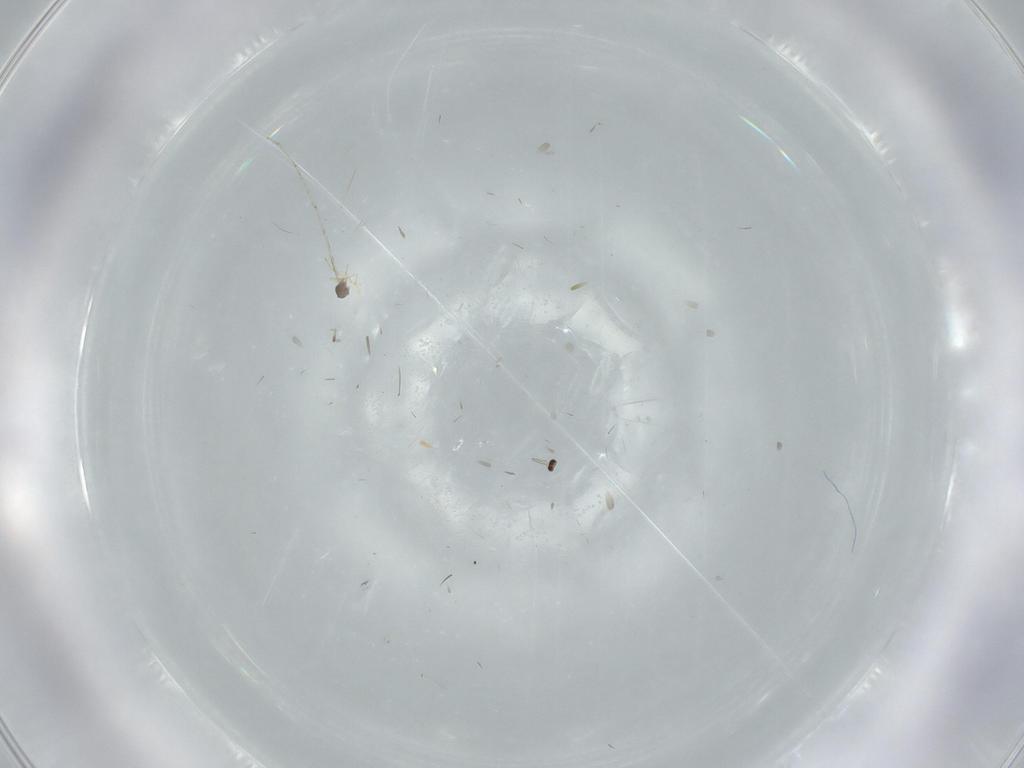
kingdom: Animalia
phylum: Arthropoda
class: Insecta
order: Diptera
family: Cecidomyiidae
